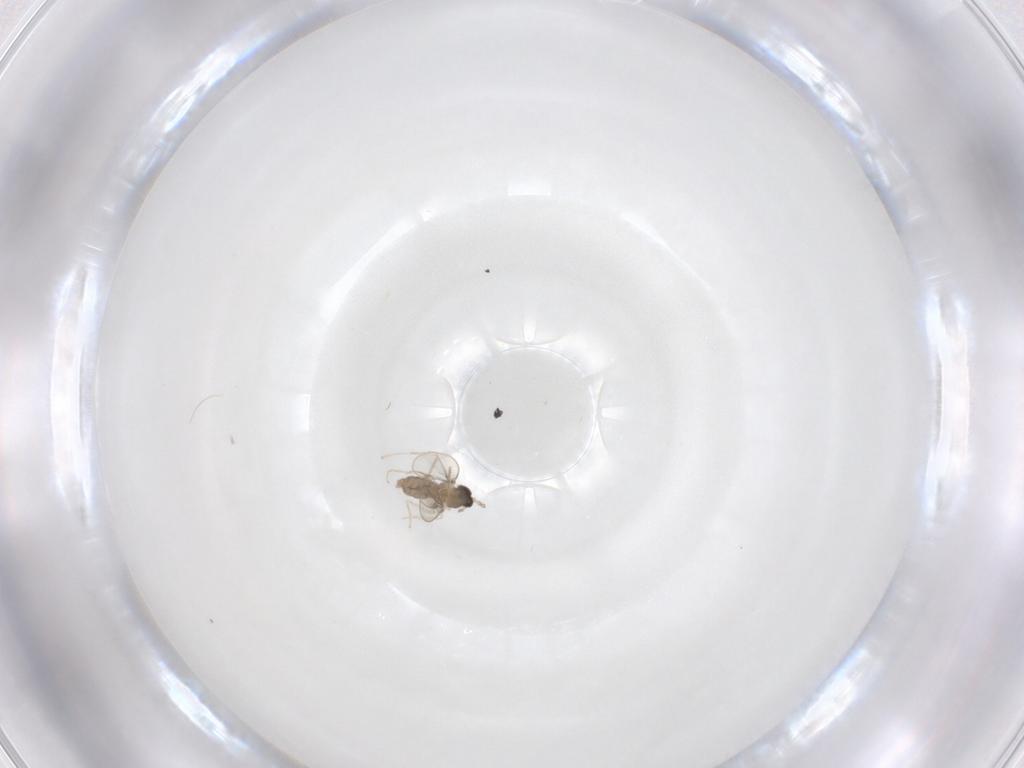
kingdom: Animalia
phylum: Arthropoda
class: Insecta
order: Diptera
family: Cecidomyiidae
